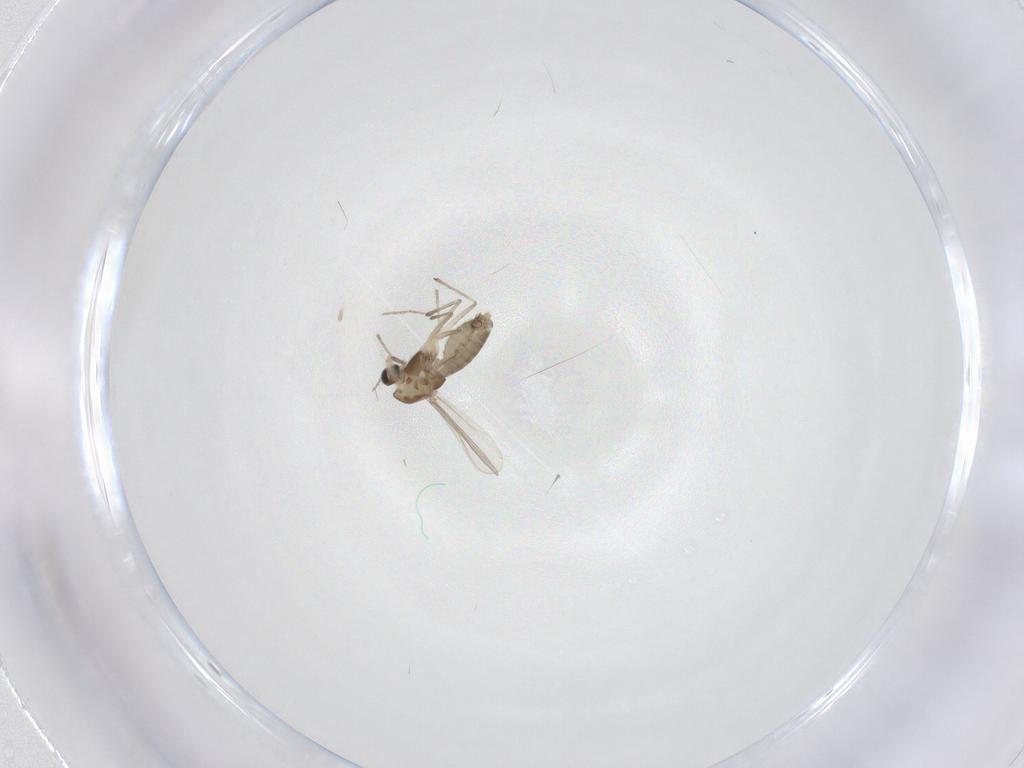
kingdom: Animalia
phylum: Arthropoda
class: Insecta
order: Diptera
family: Chironomidae
